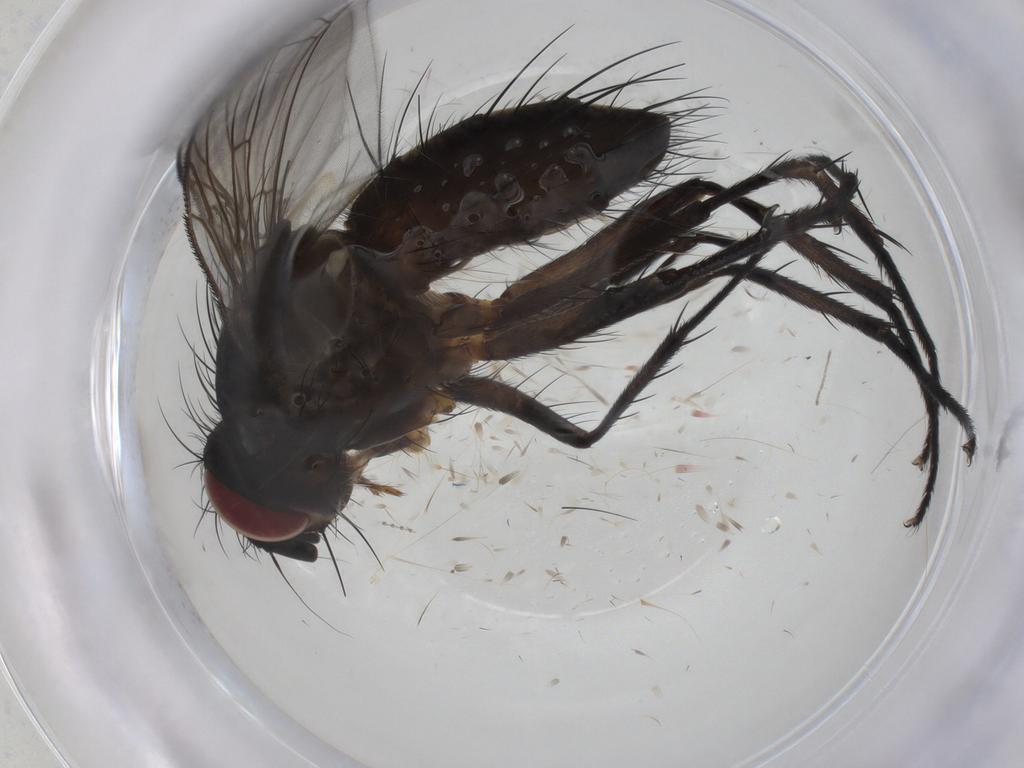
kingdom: Animalia
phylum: Arthropoda
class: Insecta
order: Diptera
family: Tachinidae
